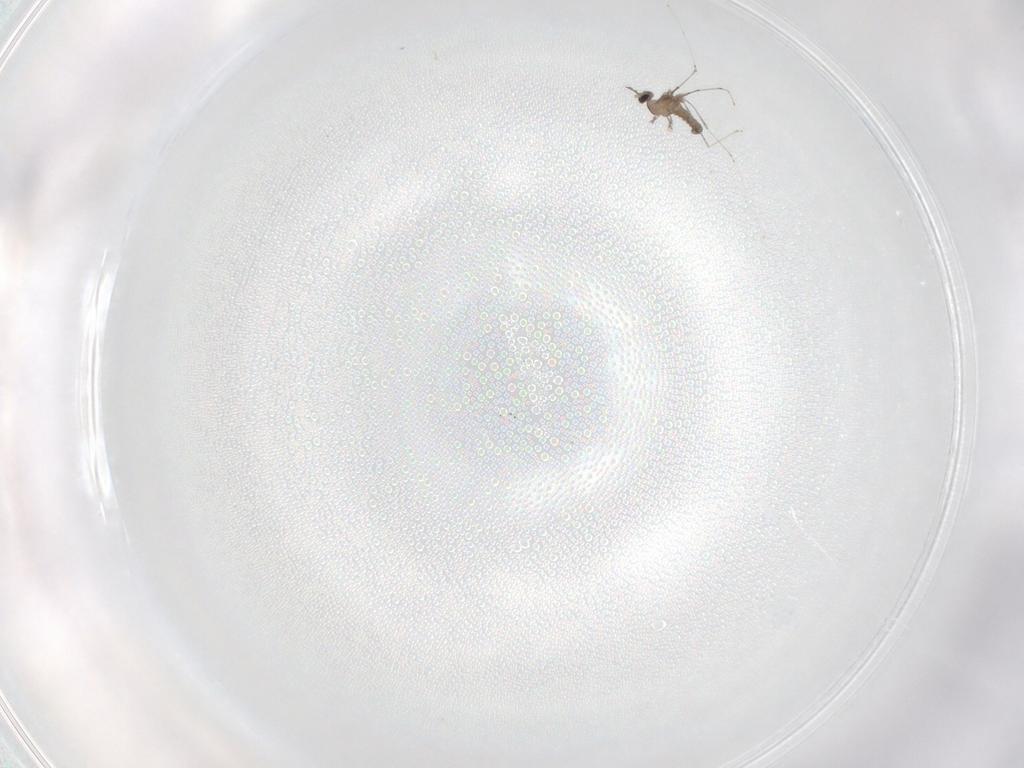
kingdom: Animalia
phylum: Arthropoda
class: Insecta
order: Diptera
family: Cecidomyiidae
